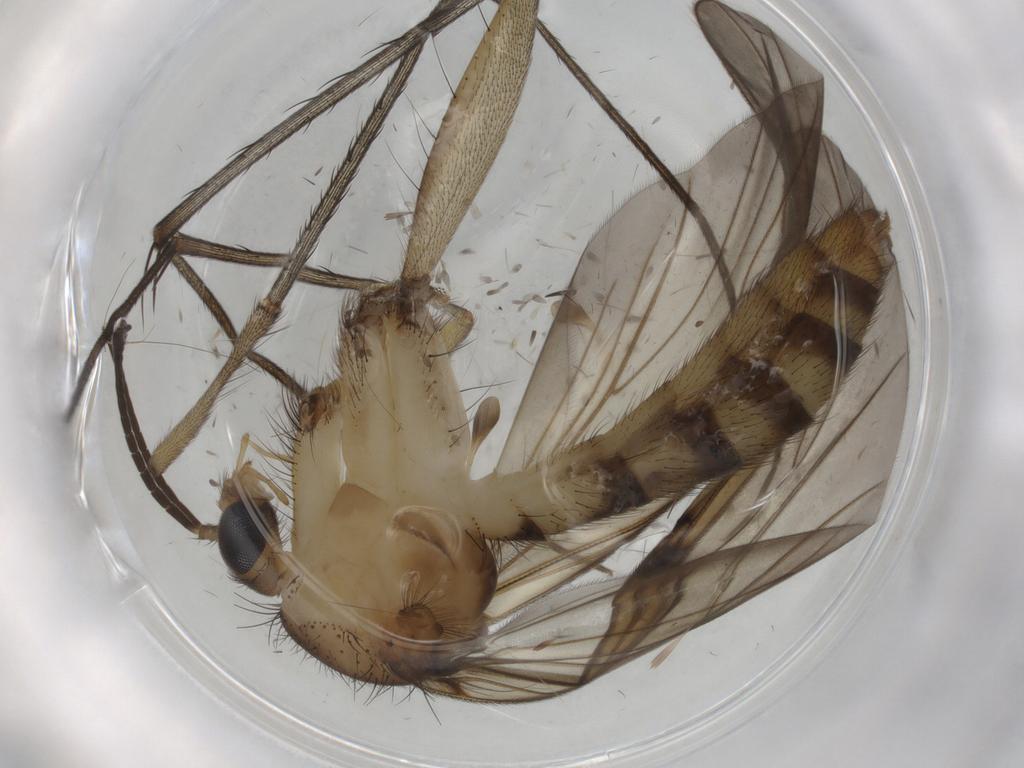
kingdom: Animalia
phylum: Arthropoda
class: Insecta
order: Diptera
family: Mycetophilidae
